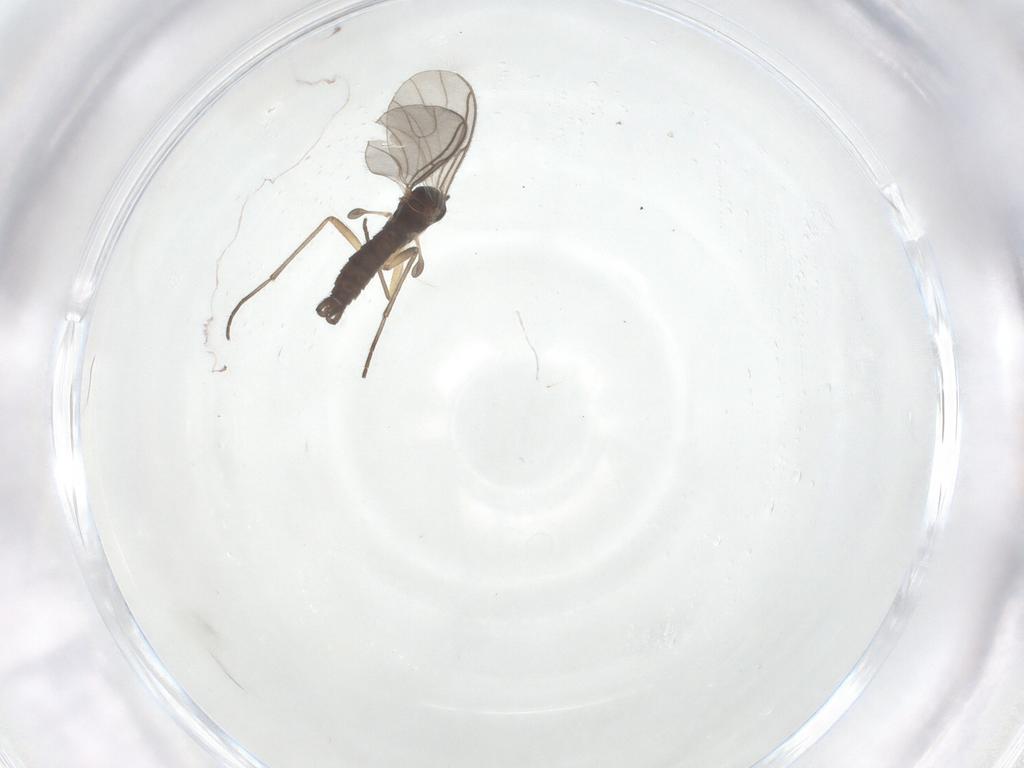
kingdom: Animalia
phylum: Arthropoda
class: Insecta
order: Diptera
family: Sciaridae
